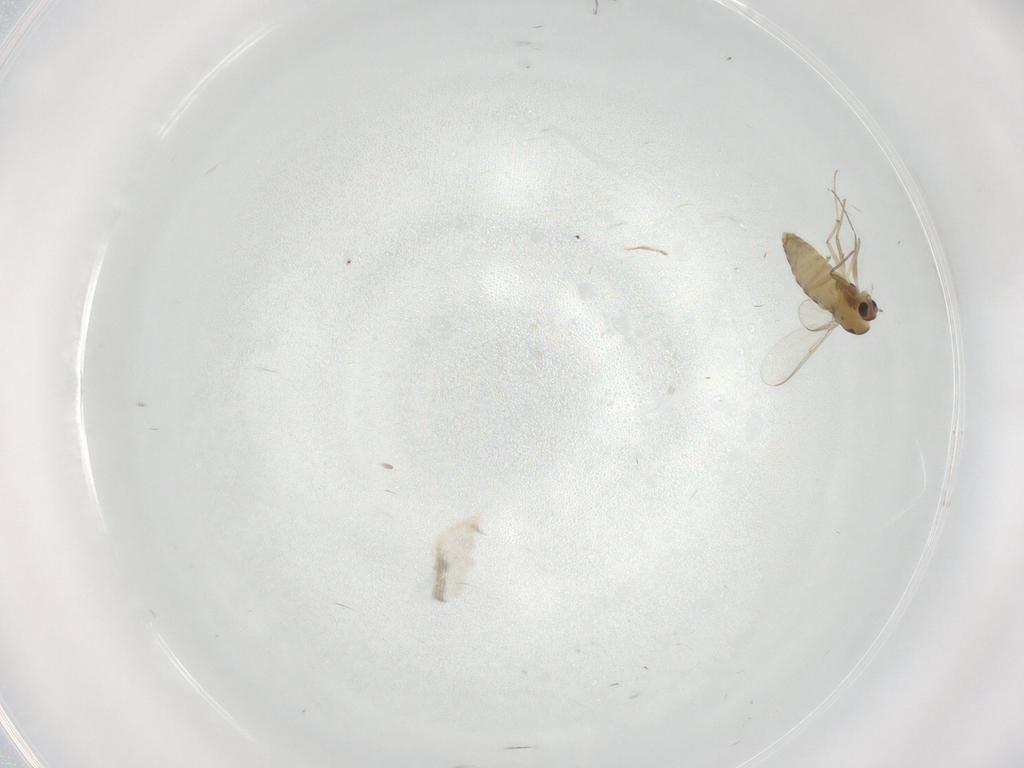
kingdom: Animalia
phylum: Arthropoda
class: Insecta
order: Diptera
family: Chironomidae
